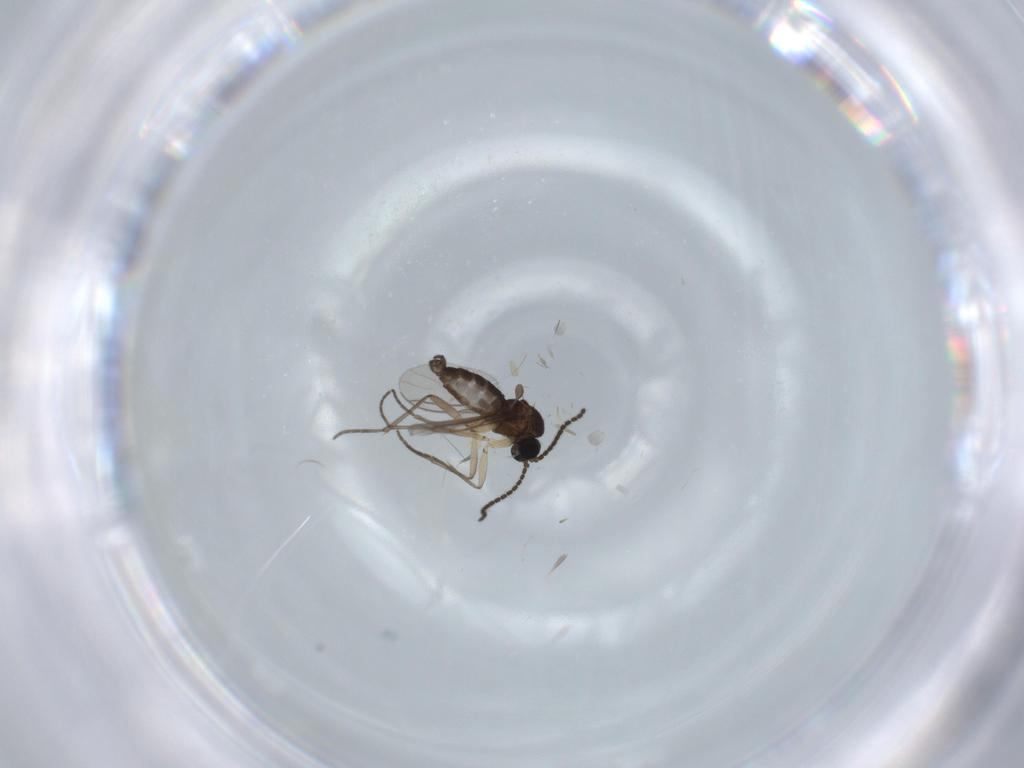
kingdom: Animalia
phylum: Arthropoda
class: Insecta
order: Diptera
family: Sciaridae
